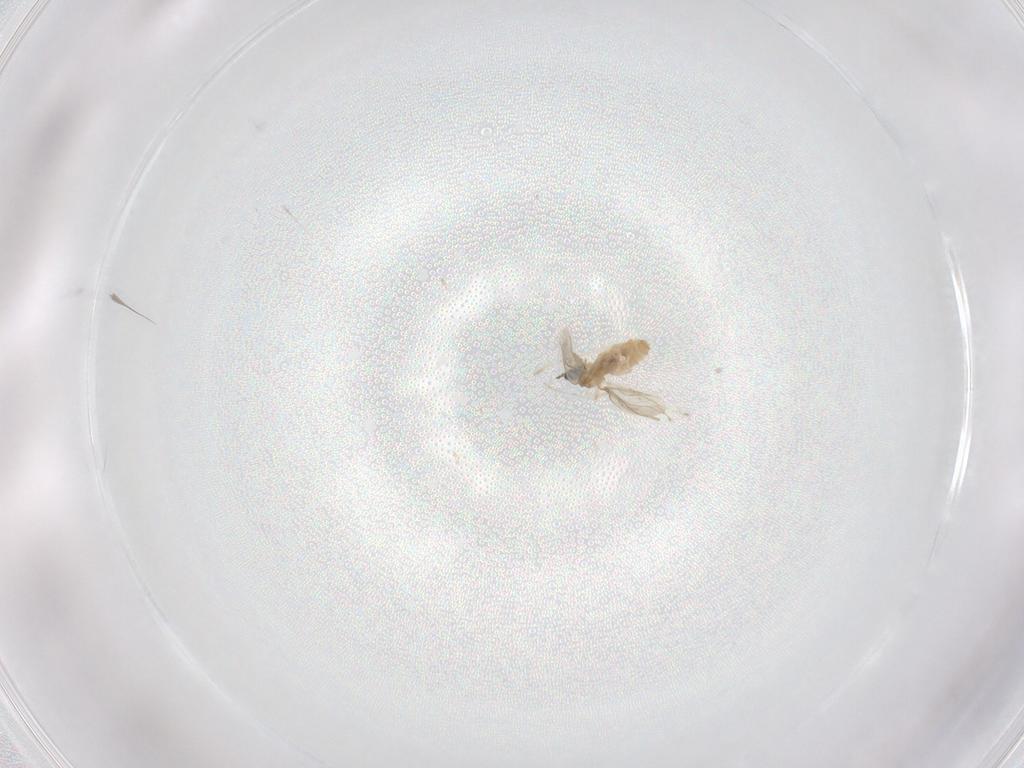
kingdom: Animalia
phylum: Arthropoda
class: Insecta
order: Diptera
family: Cecidomyiidae
